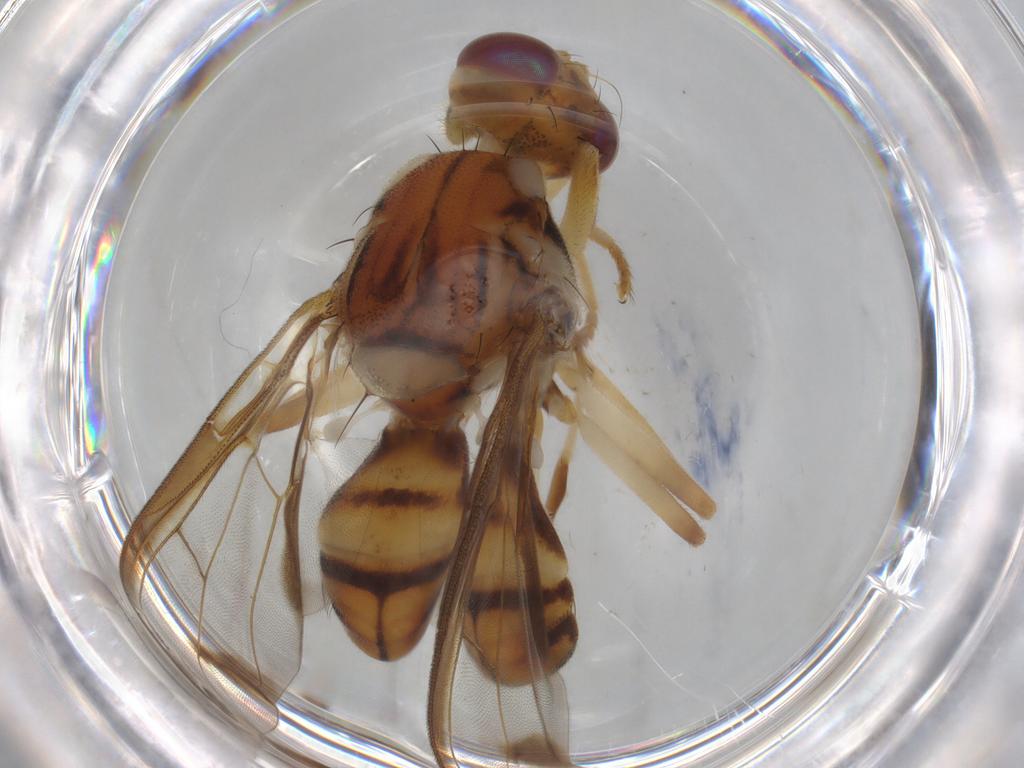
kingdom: Animalia
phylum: Arthropoda
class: Insecta
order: Diptera
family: Tephritidae
